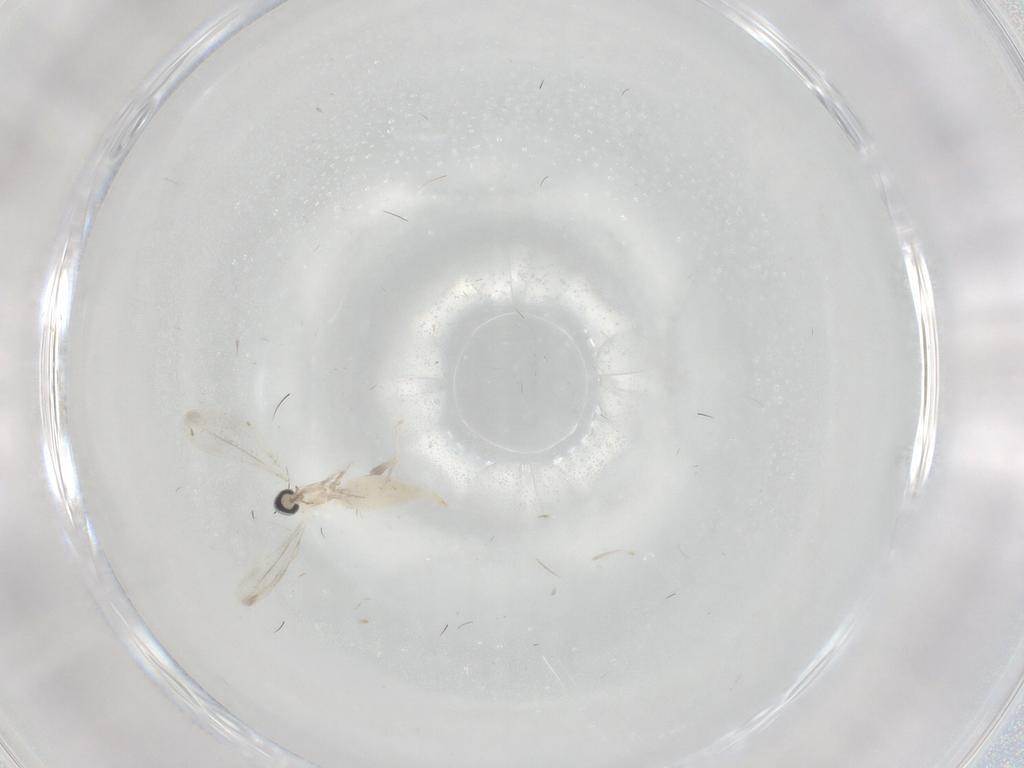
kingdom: Animalia
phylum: Arthropoda
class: Insecta
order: Diptera
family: Cecidomyiidae
